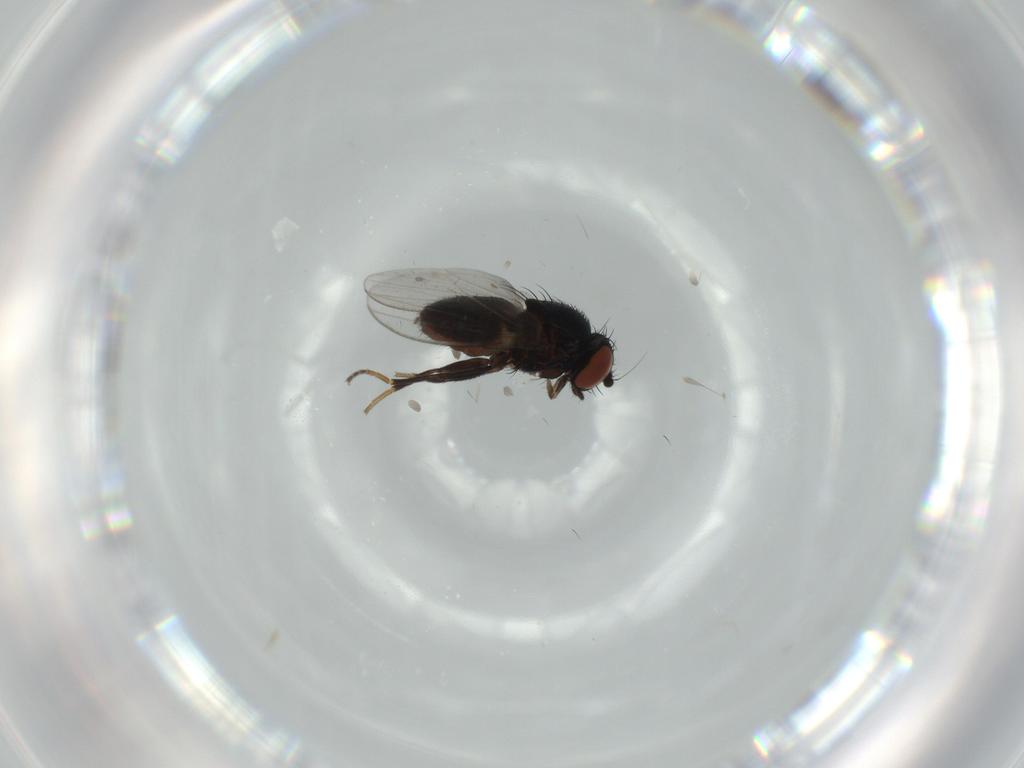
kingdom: Animalia
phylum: Arthropoda
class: Insecta
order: Diptera
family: Milichiidae
